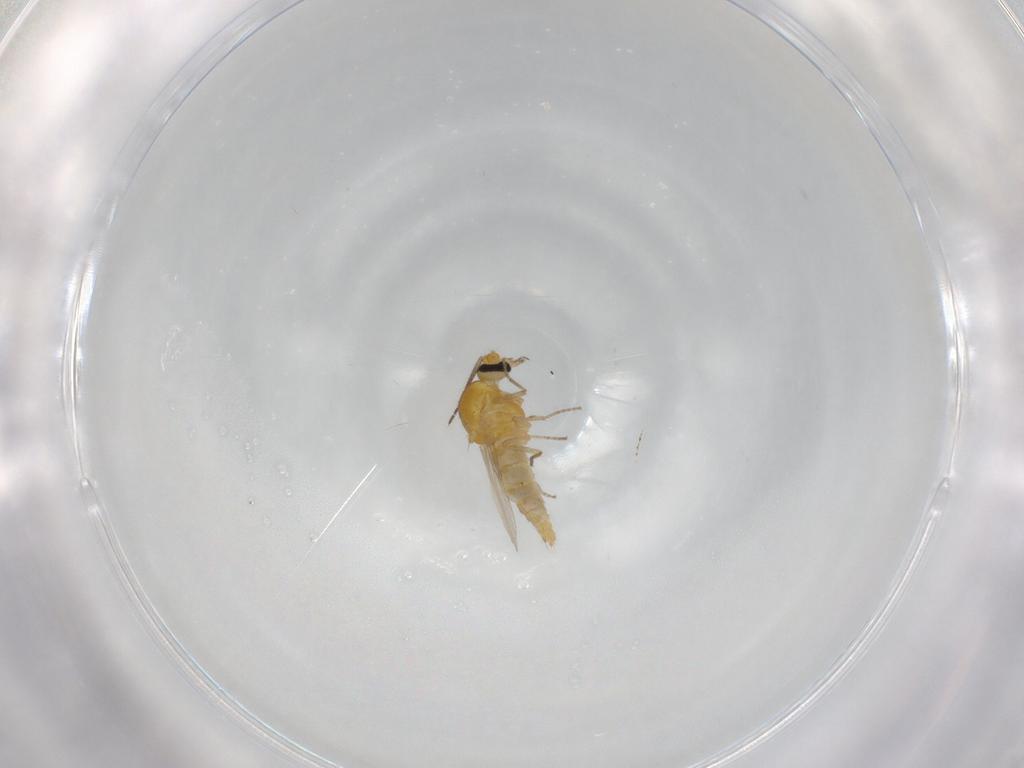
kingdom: Animalia
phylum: Arthropoda
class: Insecta
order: Diptera
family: Ceratopogonidae
